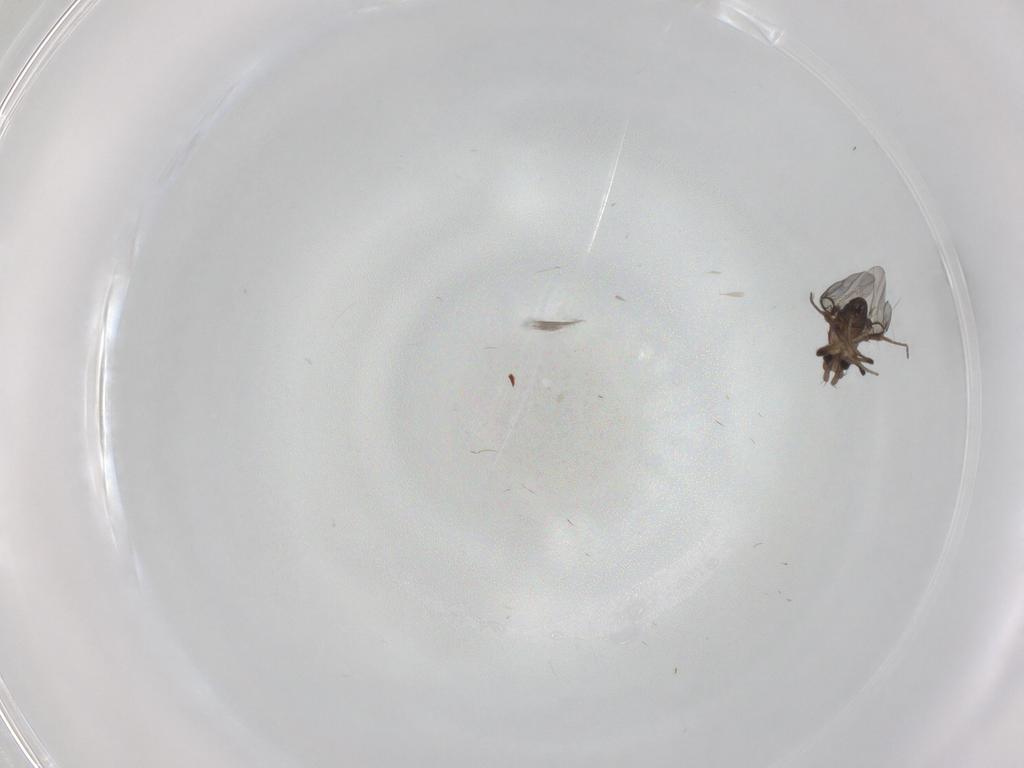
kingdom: Animalia
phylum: Arthropoda
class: Insecta
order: Diptera
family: Phoridae
